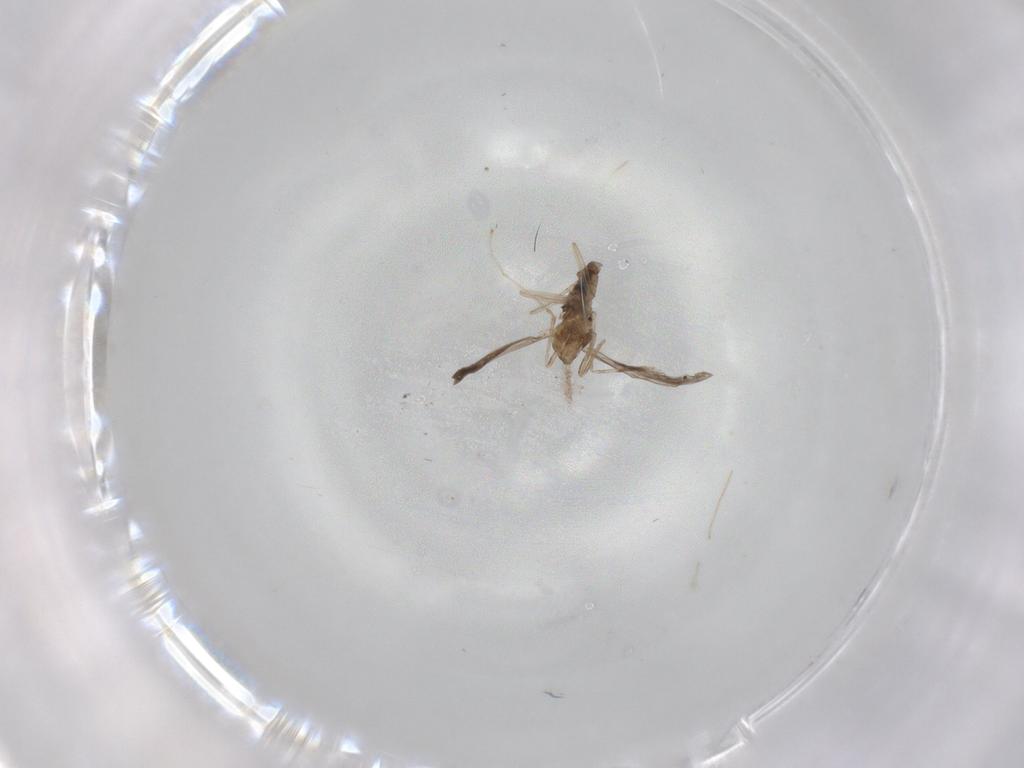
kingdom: Animalia
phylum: Arthropoda
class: Insecta
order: Diptera
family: Cecidomyiidae
